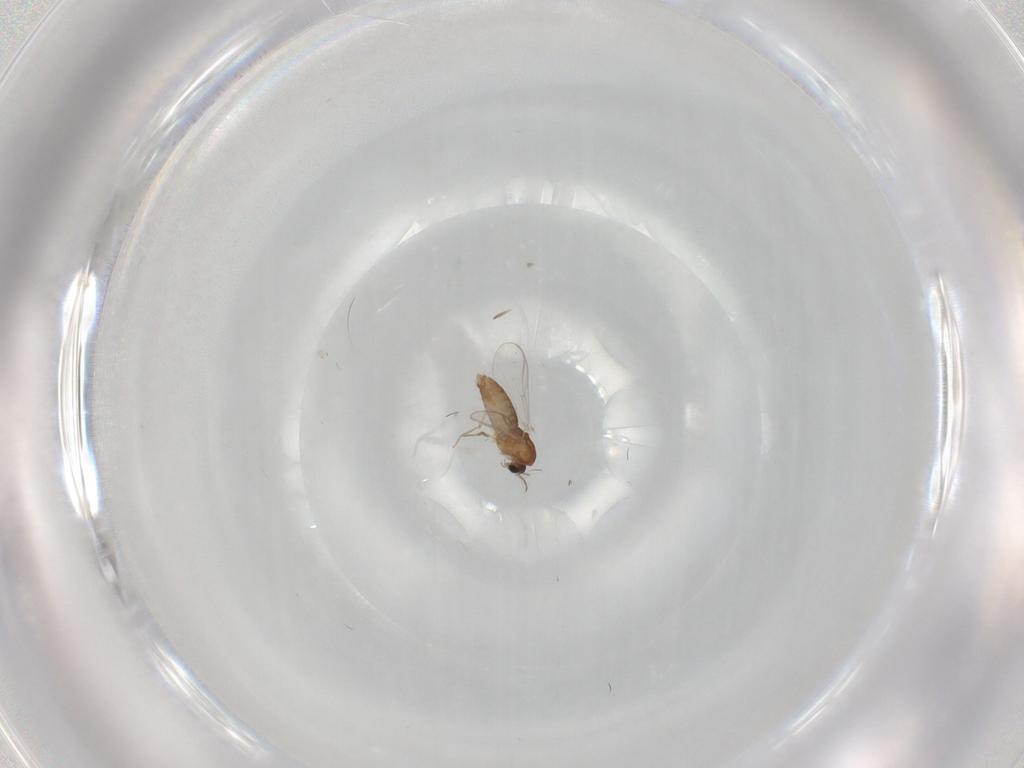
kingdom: Animalia
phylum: Arthropoda
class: Insecta
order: Diptera
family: Chironomidae
